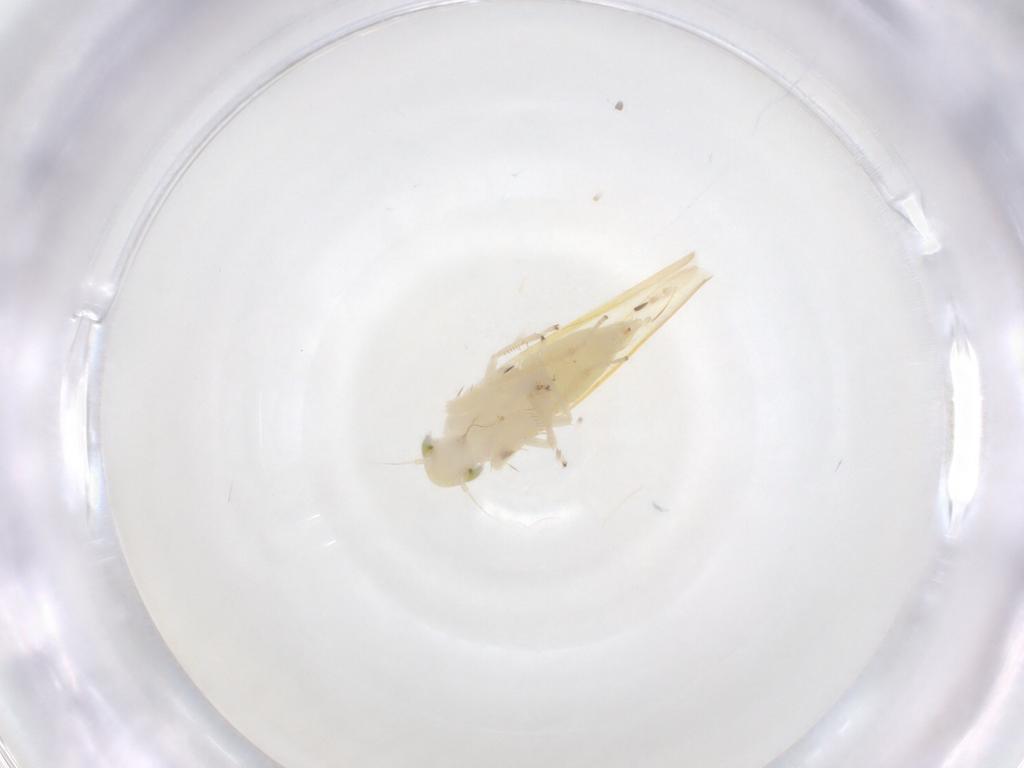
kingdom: Animalia
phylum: Arthropoda
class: Insecta
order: Hemiptera
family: Cicadellidae
